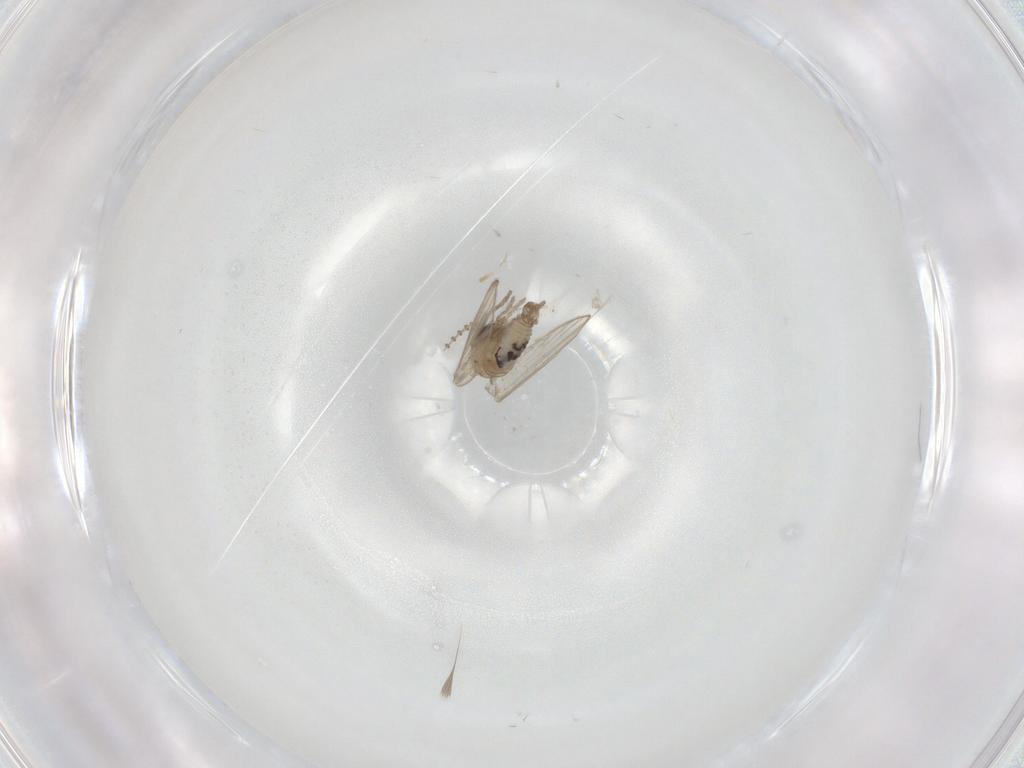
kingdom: Animalia
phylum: Arthropoda
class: Insecta
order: Diptera
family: Psychodidae
